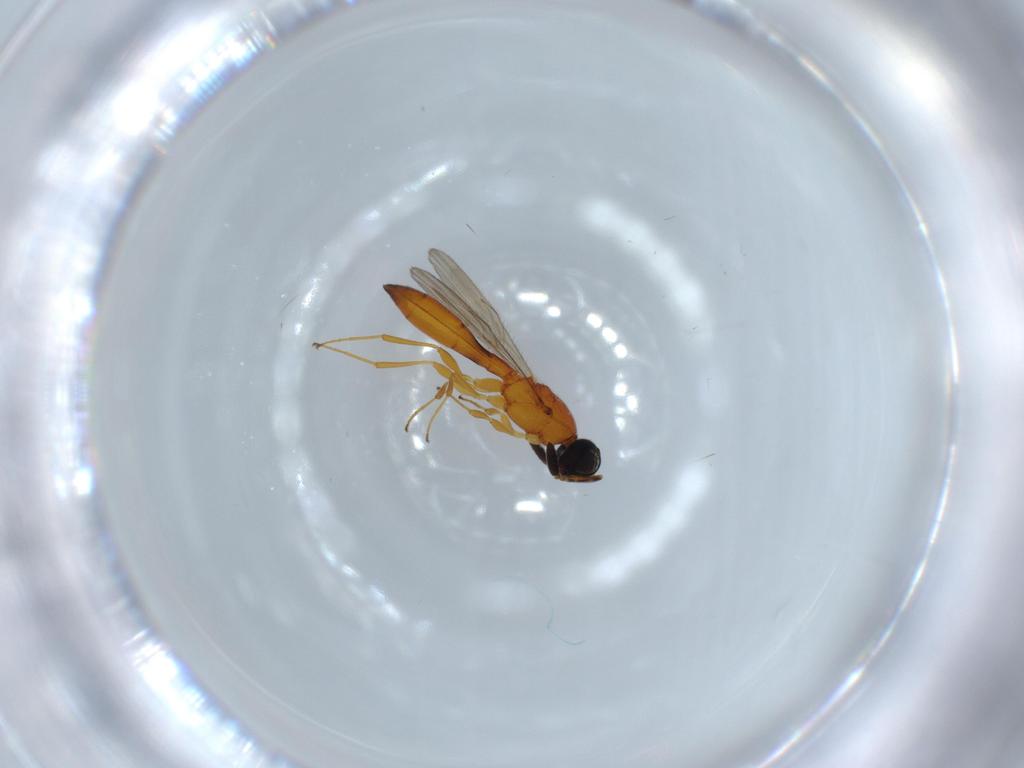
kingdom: Animalia
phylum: Arthropoda
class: Insecta
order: Hymenoptera
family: Scelionidae
